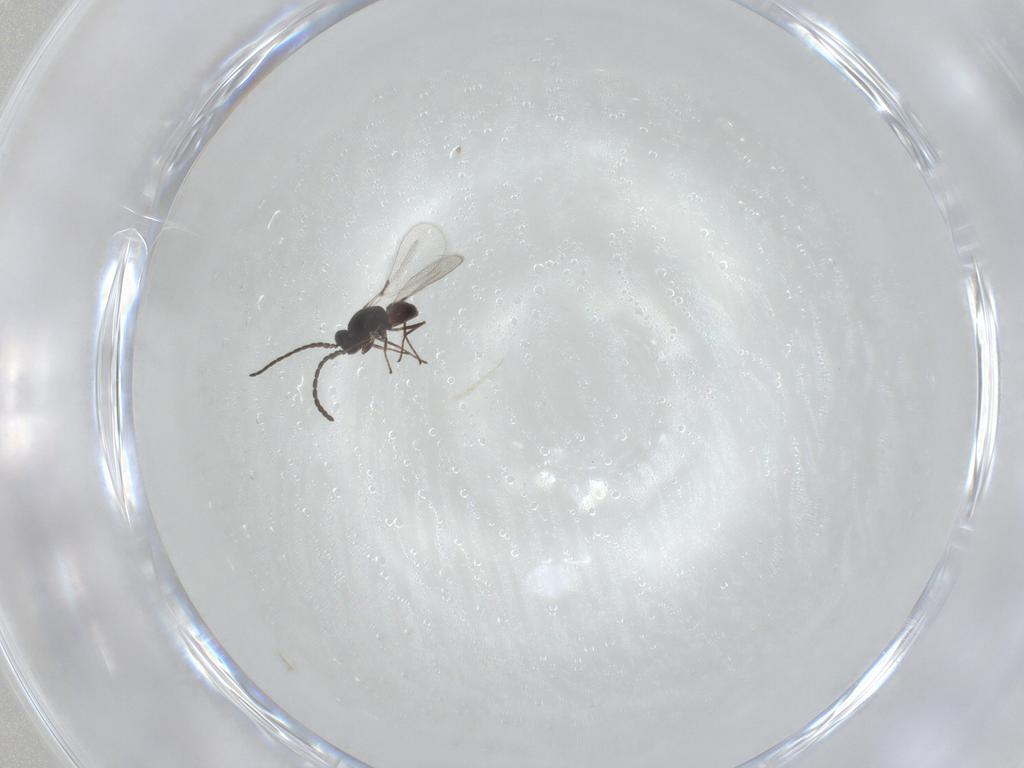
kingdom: Animalia
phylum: Arthropoda
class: Insecta
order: Hymenoptera
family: Mymaridae
